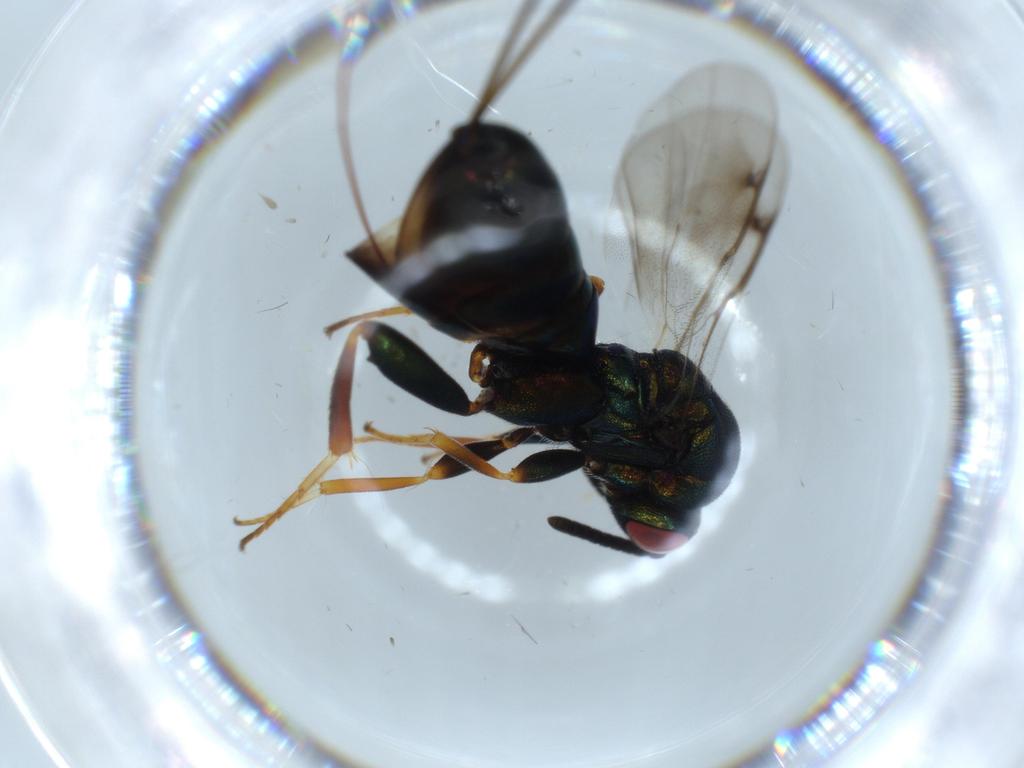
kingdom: Animalia
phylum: Arthropoda
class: Insecta
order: Hymenoptera
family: Torymidae
